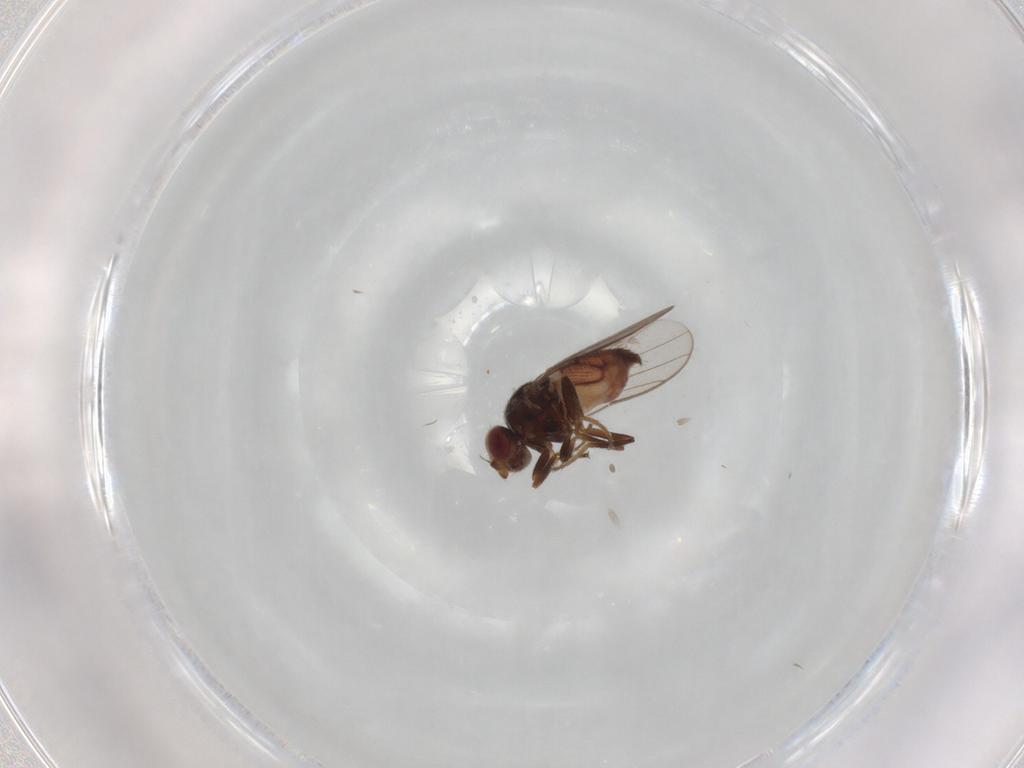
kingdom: Animalia
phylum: Arthropoda
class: Insecta
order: Diptera
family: Chloropidae
